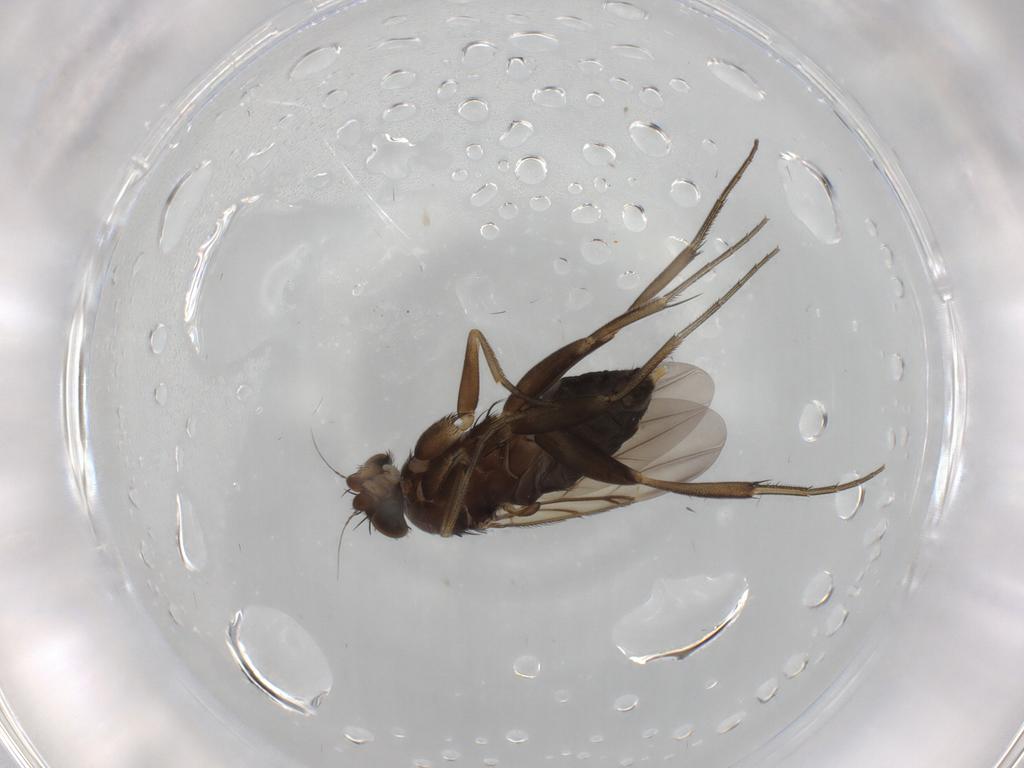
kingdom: Animalia
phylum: Arthropoda
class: Insecta
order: Diptera
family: Phoridae
